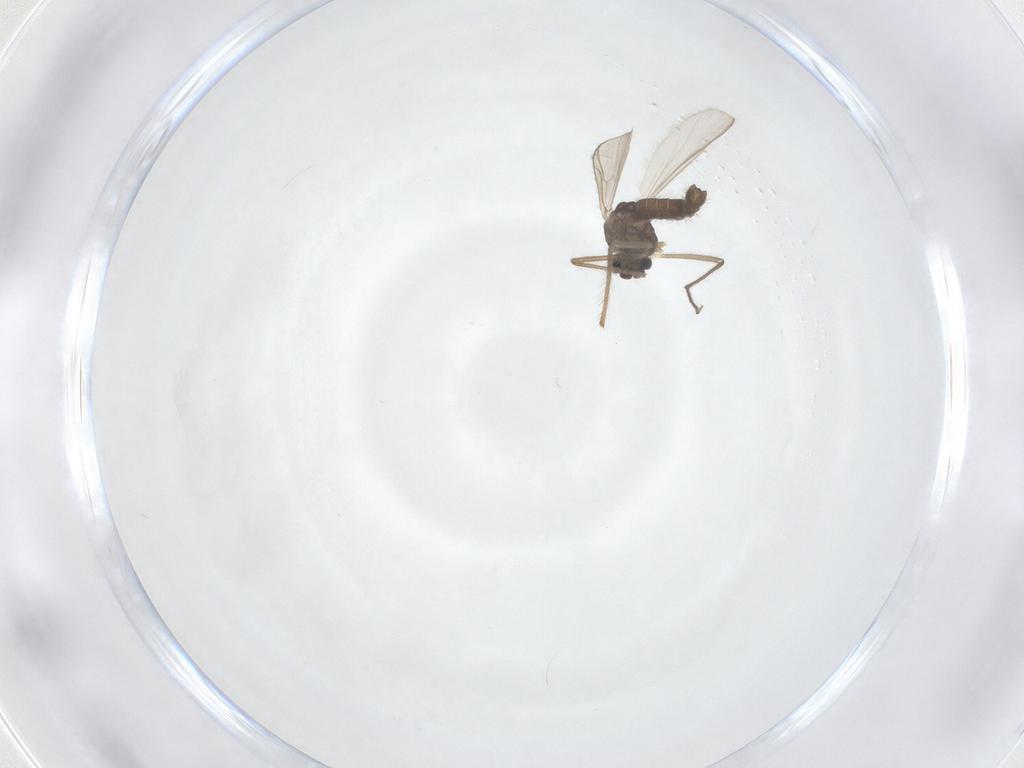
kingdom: Animalia
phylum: Arthropoda
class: Insecta
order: Diptera
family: Chironomidae
